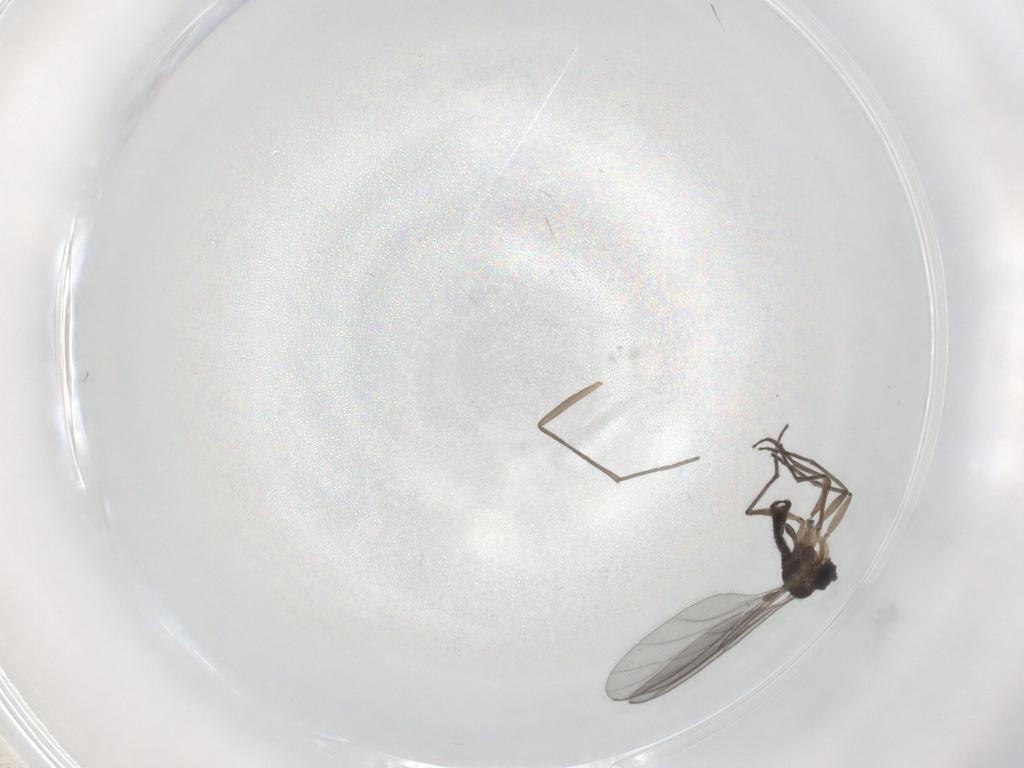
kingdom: Animalia
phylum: Arthropoda
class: Insecta
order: Diptera
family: Sciaridae
